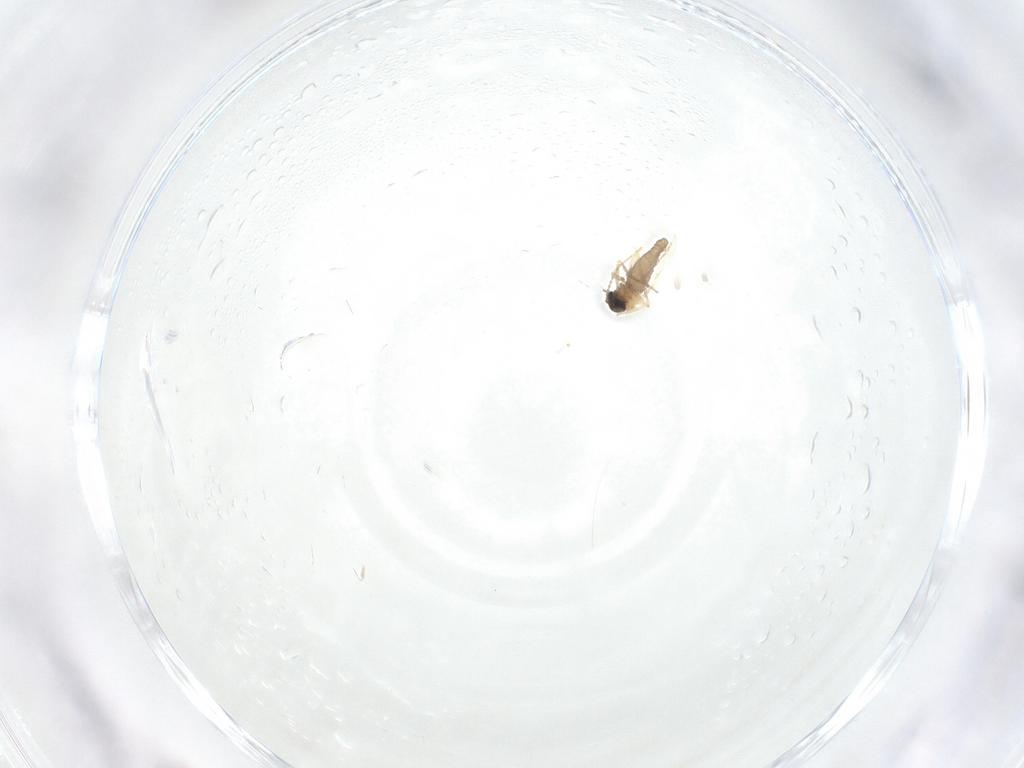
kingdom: Animalia
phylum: Arthropoda
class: Insecta
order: Diptera
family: Ceratopogonidae
